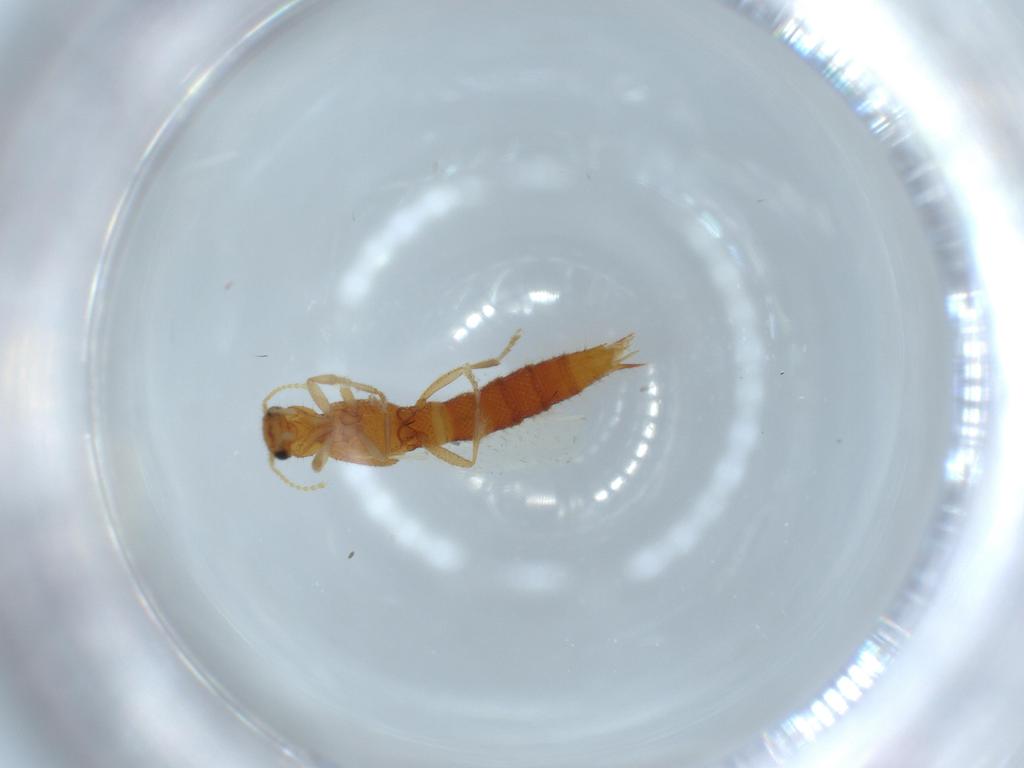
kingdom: Animalia
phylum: Arthropoda
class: Insecta
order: Coleoptera
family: Staphylinidae
